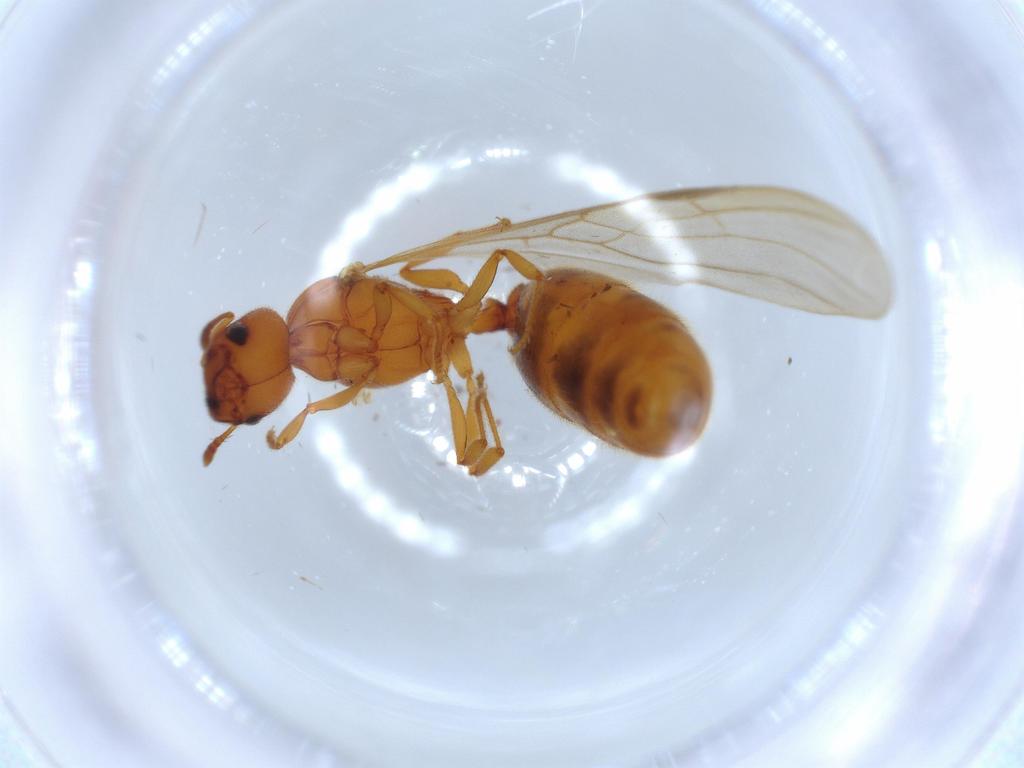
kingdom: Animalia
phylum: Arthropoda
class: Insecta
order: Hymenoptera
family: Formicidae
